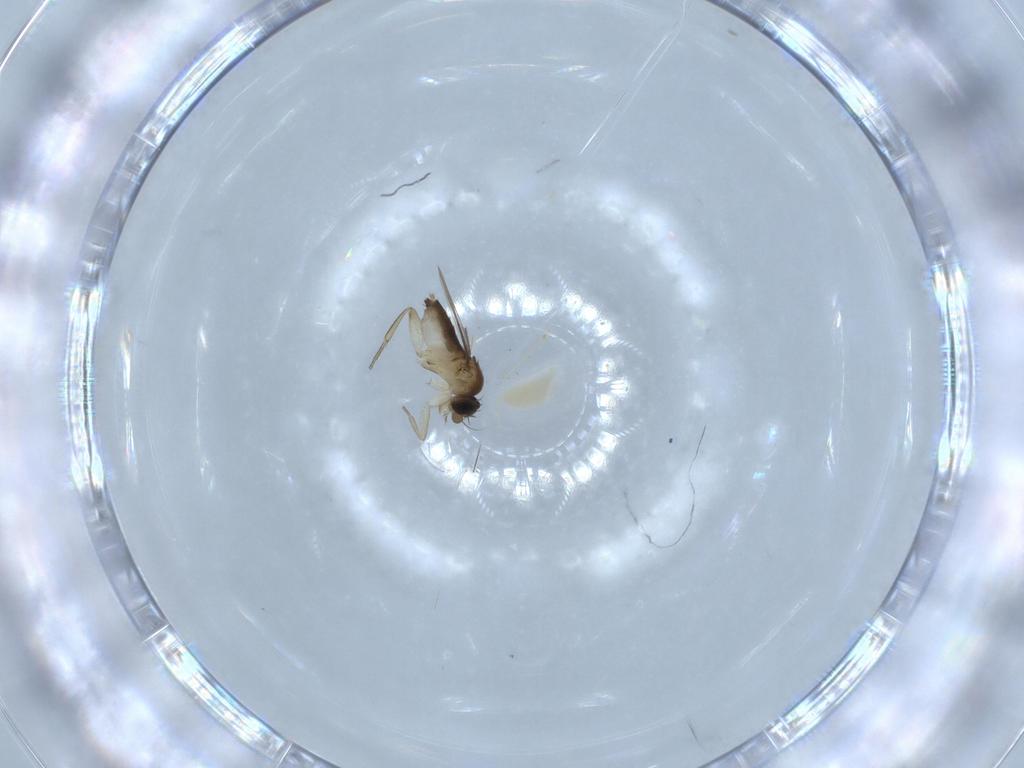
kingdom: Animalia
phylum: Arthropoda
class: Insecta
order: Diptera
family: Phoridae
